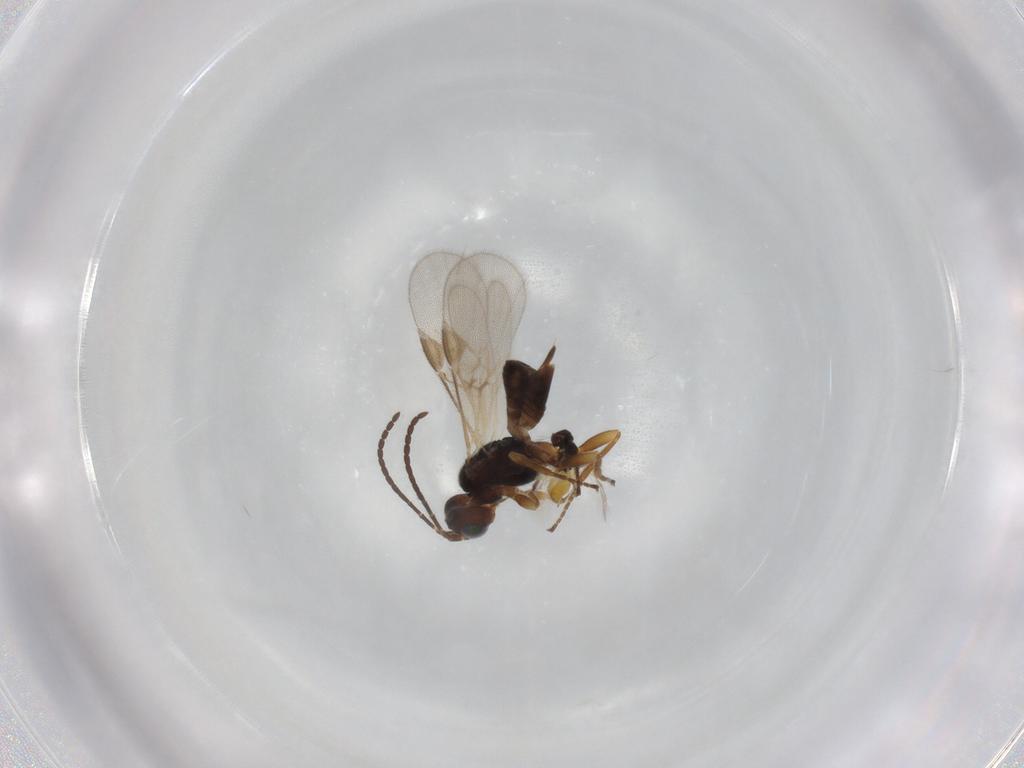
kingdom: Animalia
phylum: Arthropoda
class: Insecta
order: Hymenoptera
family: Braconidae
